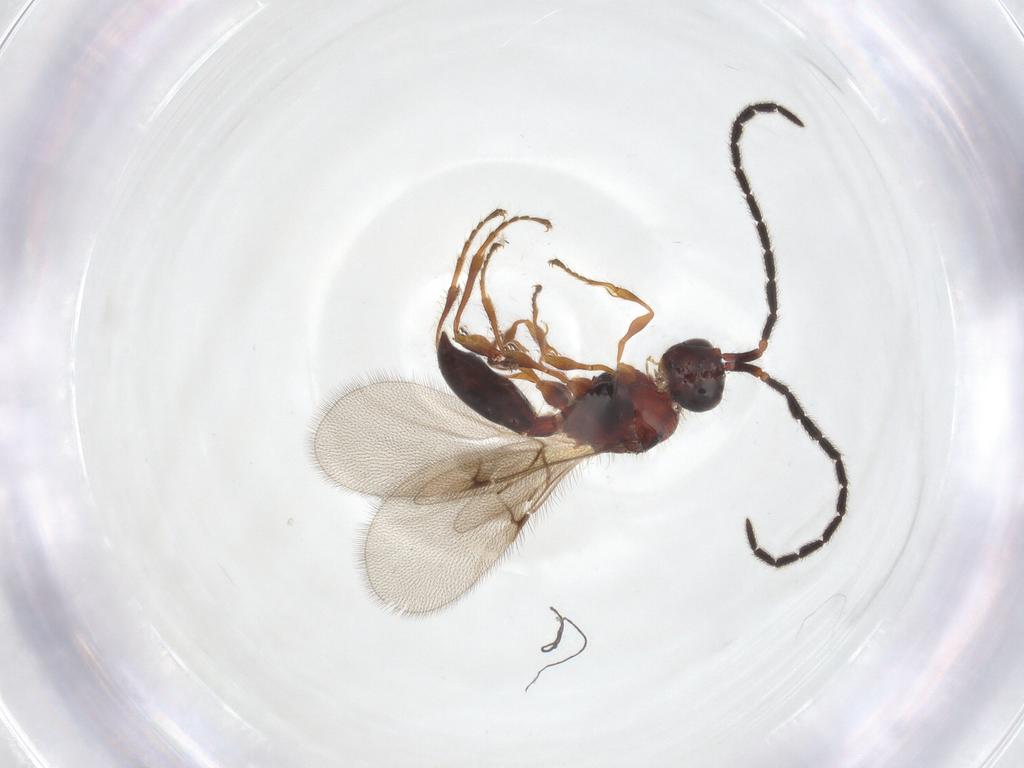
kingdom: Animalia
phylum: Arthropoda
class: Insecta
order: Hymenoptera
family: Diapriidae
